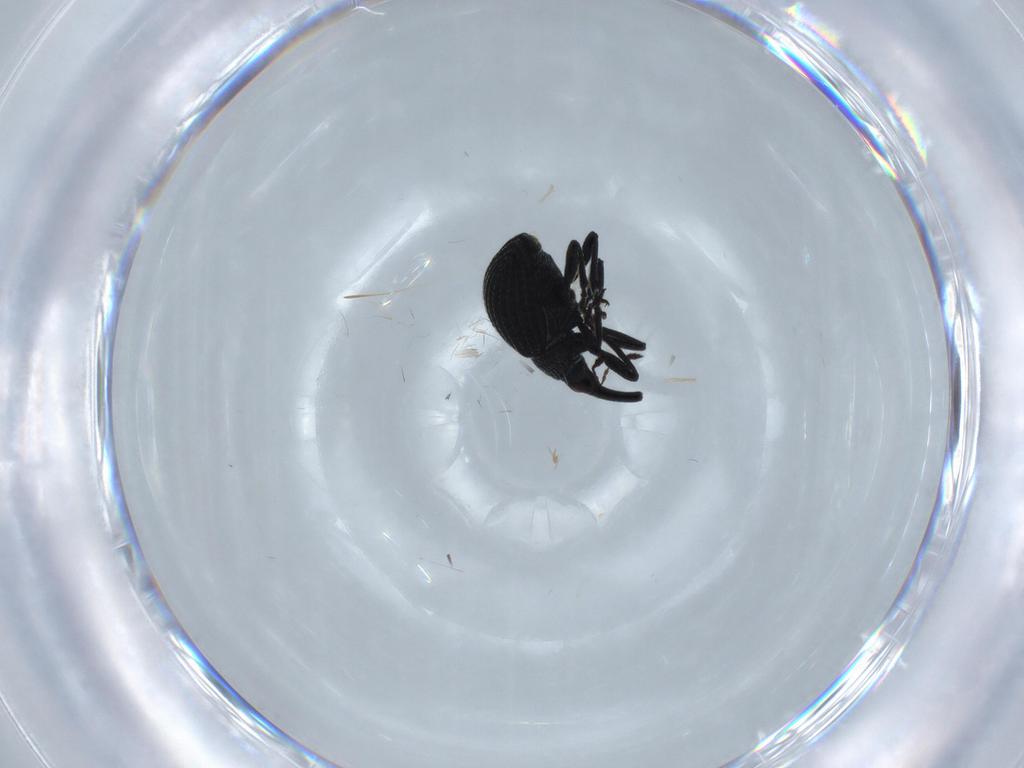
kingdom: Animalia
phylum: Arthropoda
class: Insecta
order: Coleoptera
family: Brentidae
